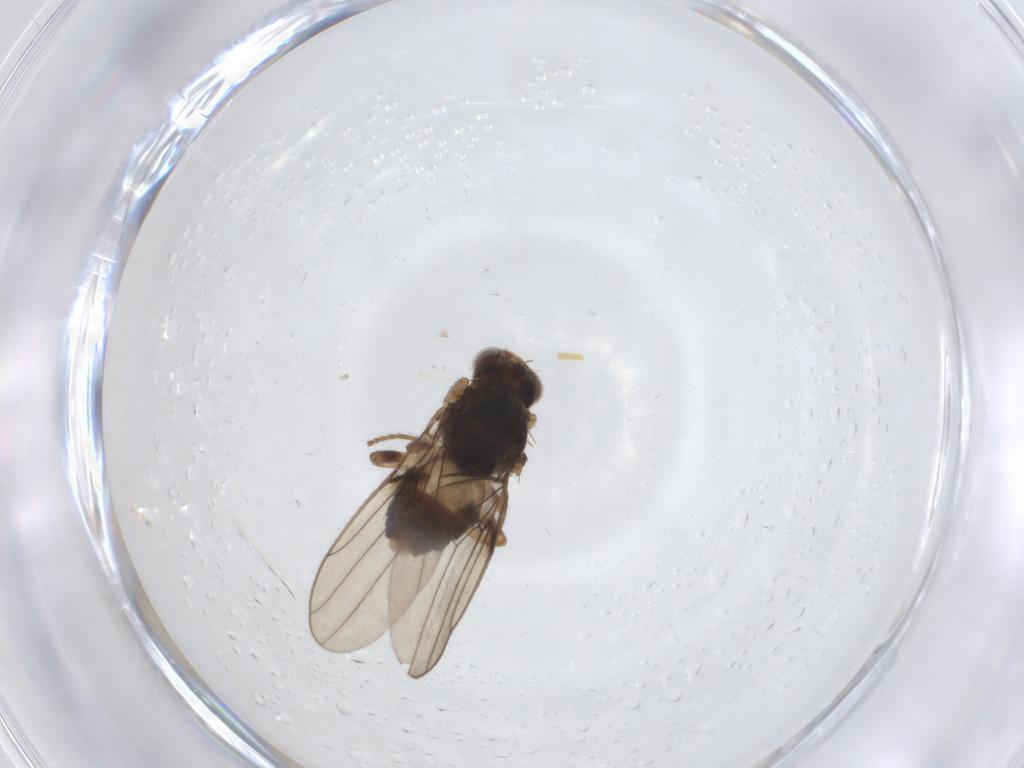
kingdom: Animalia
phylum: Arthropoda
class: Insecta
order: Diptera
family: Chloropidae
